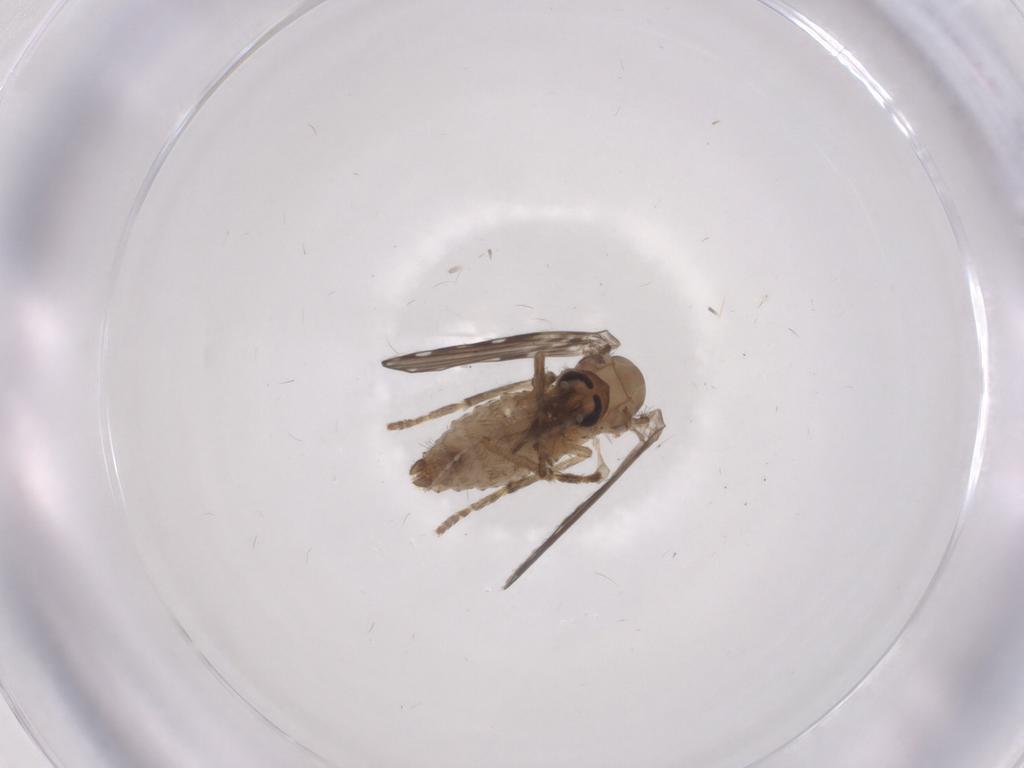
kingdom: Animalia
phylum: Arthropoda
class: Insecta
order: Diptera
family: Psychodidae
